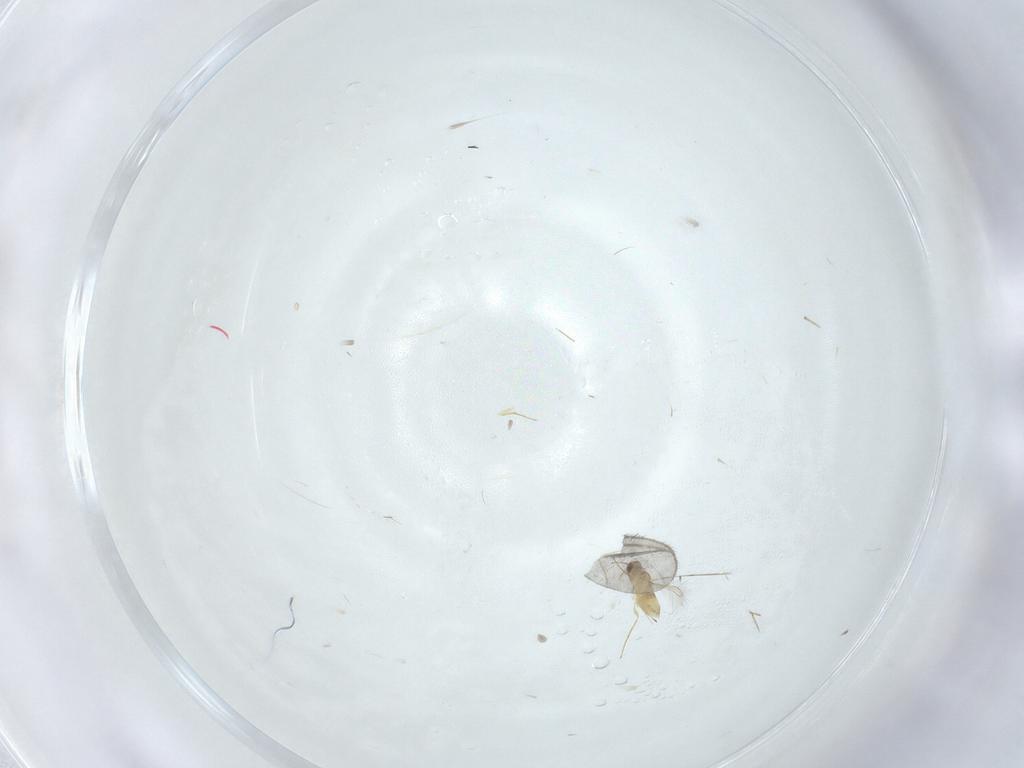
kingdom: Animalia
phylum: Arthropoda
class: Insecta
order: Hymenoptera
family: Mymaridae
